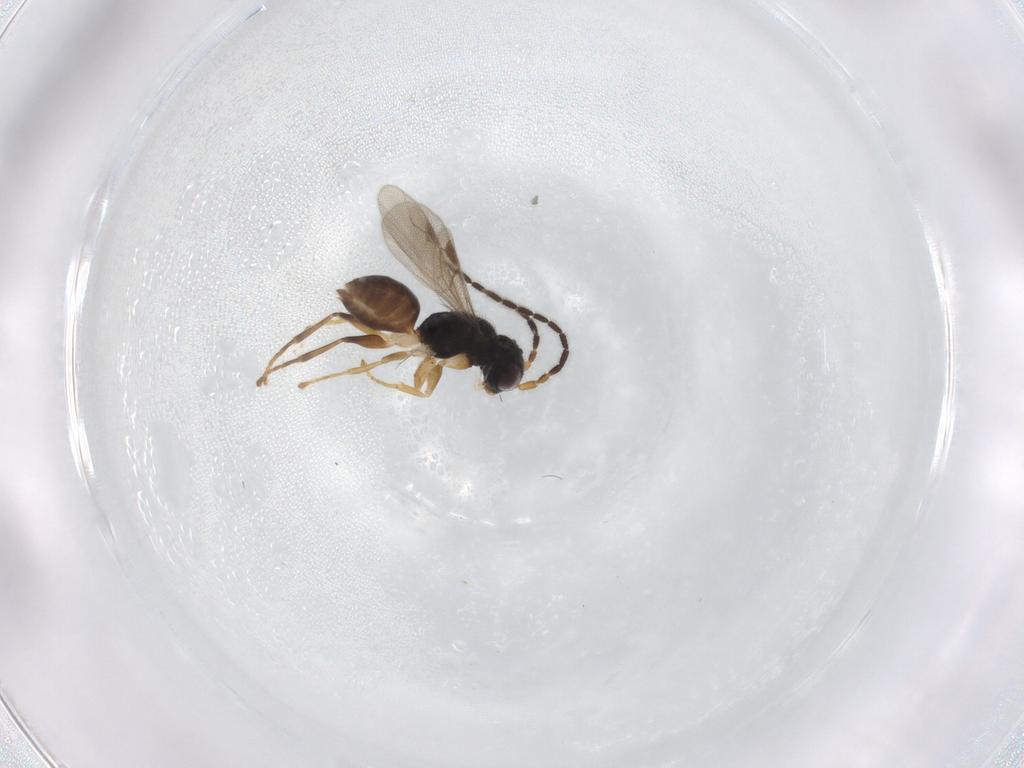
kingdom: Animalia
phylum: Arthropoda
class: Insecta
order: Hymenoptera
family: Dryinidae
